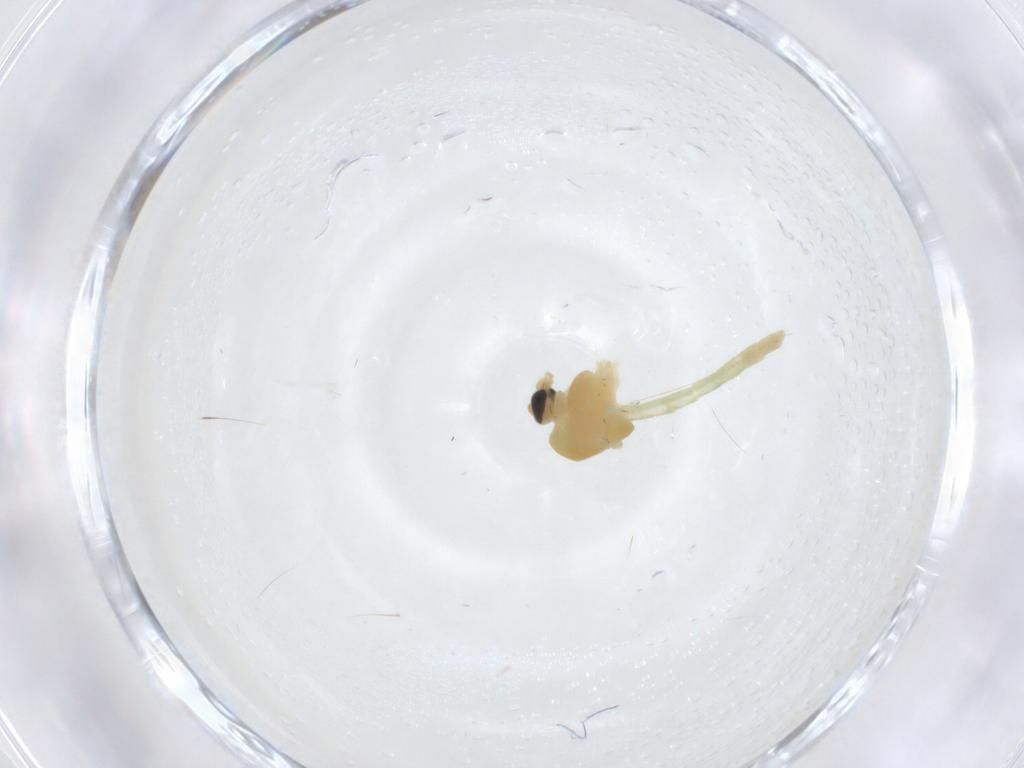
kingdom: Animalia
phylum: Arthropoda
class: Insecta
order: Diptera
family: Chironomidae
